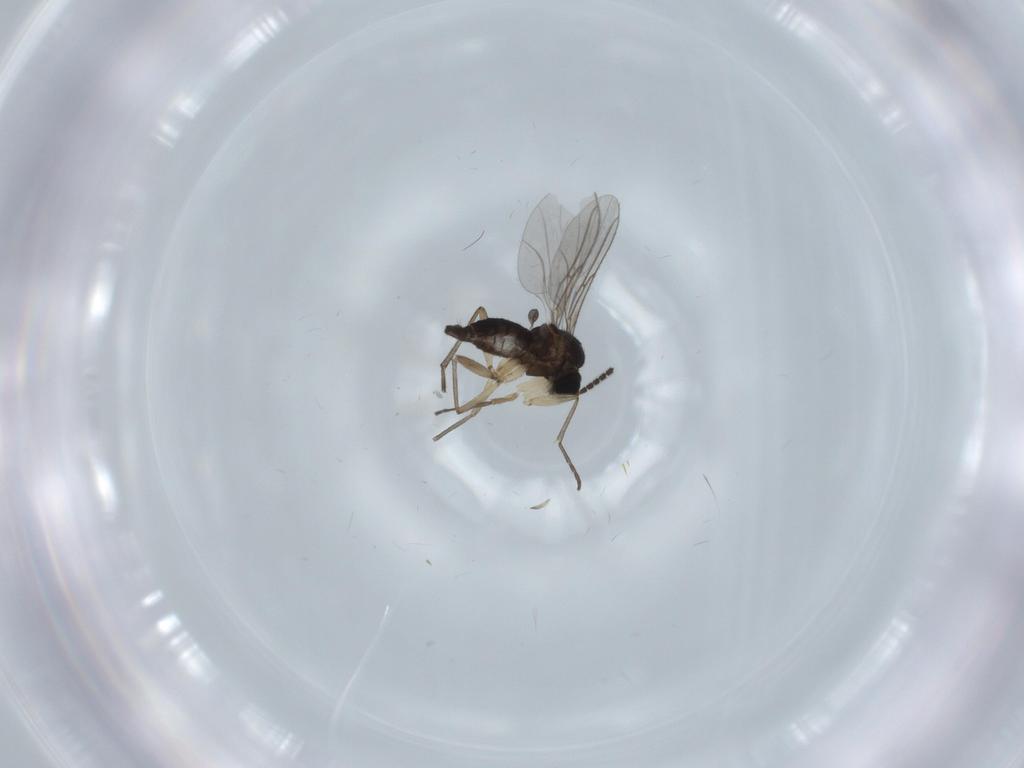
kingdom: Animalia
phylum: Arthropoda
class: Insecta
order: Diptera
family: Sciaridae
